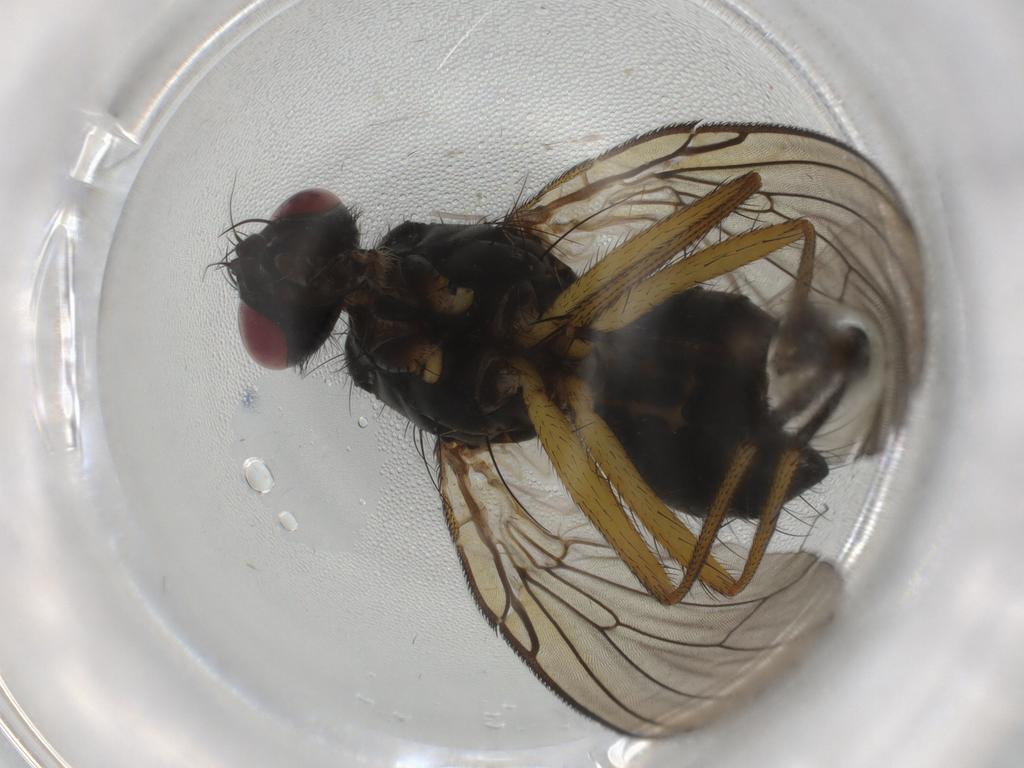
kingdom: Animalia
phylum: Arthropoda
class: Insecta
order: Diptera
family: Muscidae
